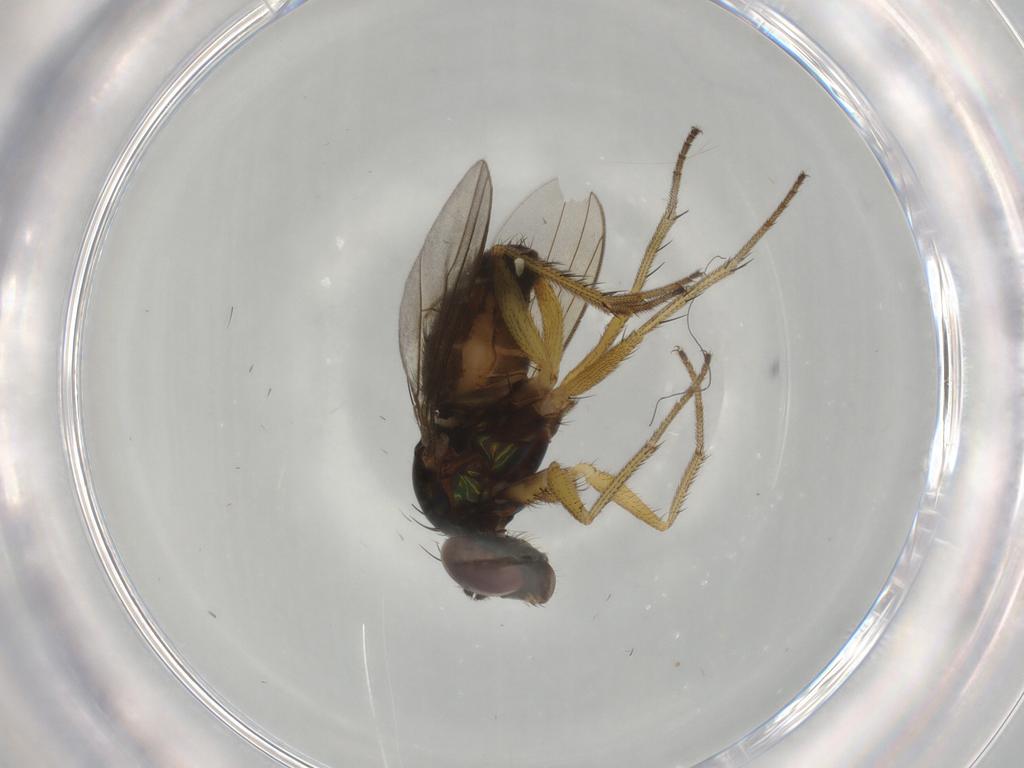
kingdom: Animalia
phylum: Arthropoda
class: Insecta
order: Diptera
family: Dolichopodidae
